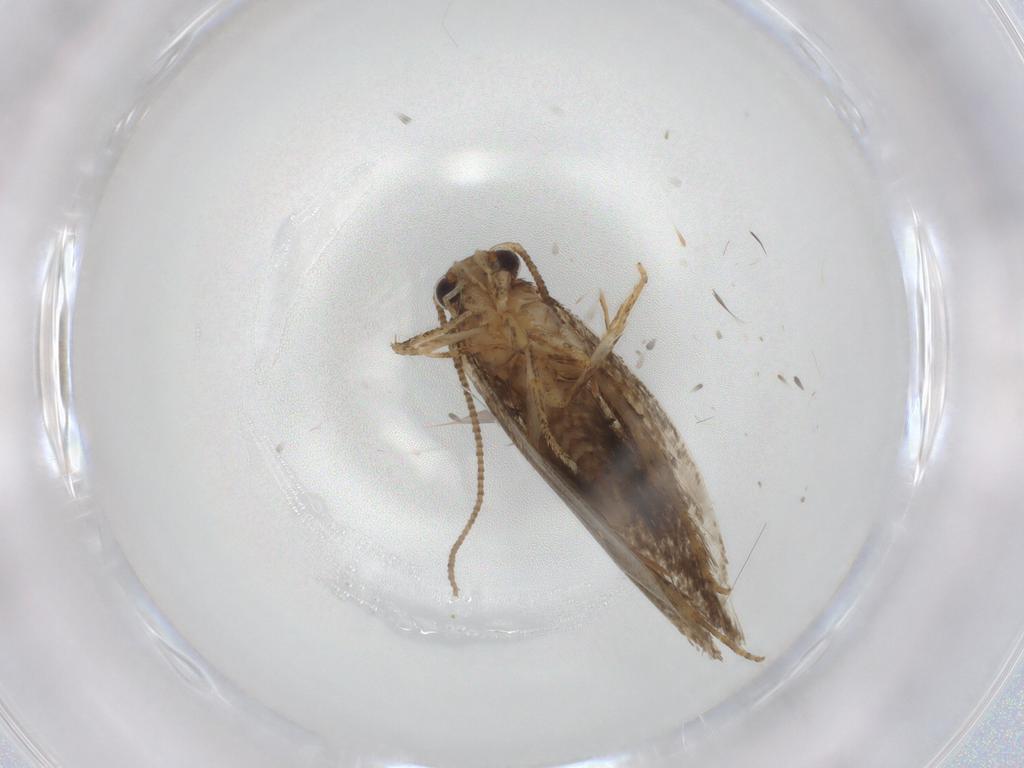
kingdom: Animalia
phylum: Arthropoda
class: Insecta
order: Lepidoptera
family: Crambidae
